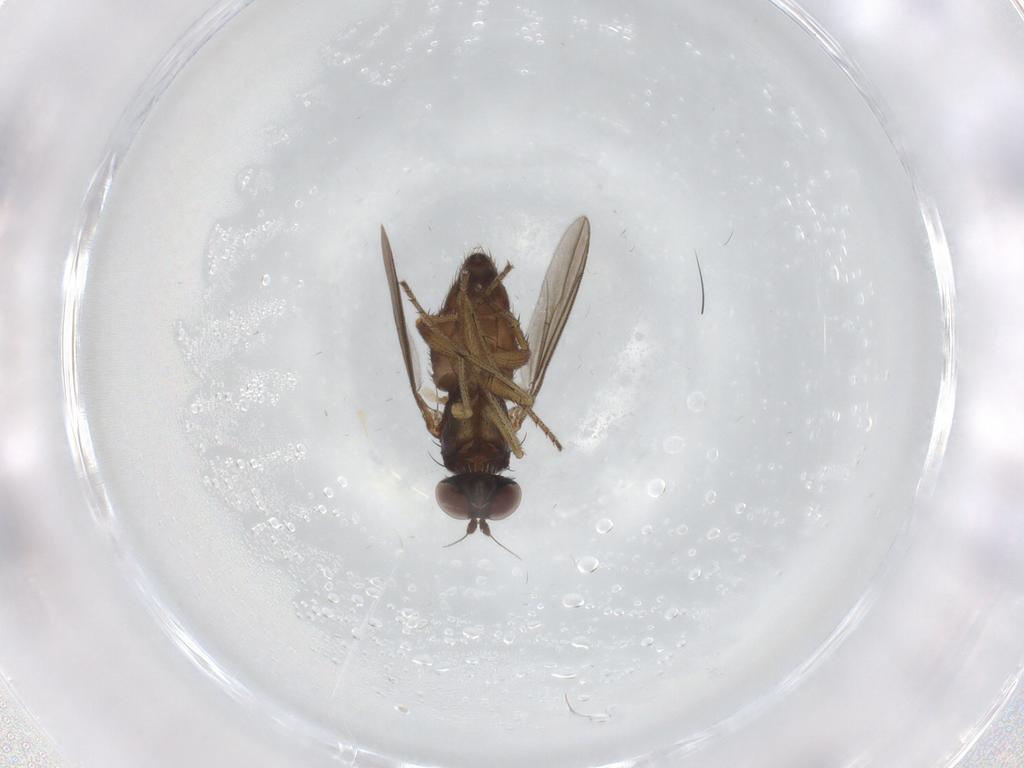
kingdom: Animalia
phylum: Arthropoda
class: Insecta
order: Diptera
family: Dolichopodidae
